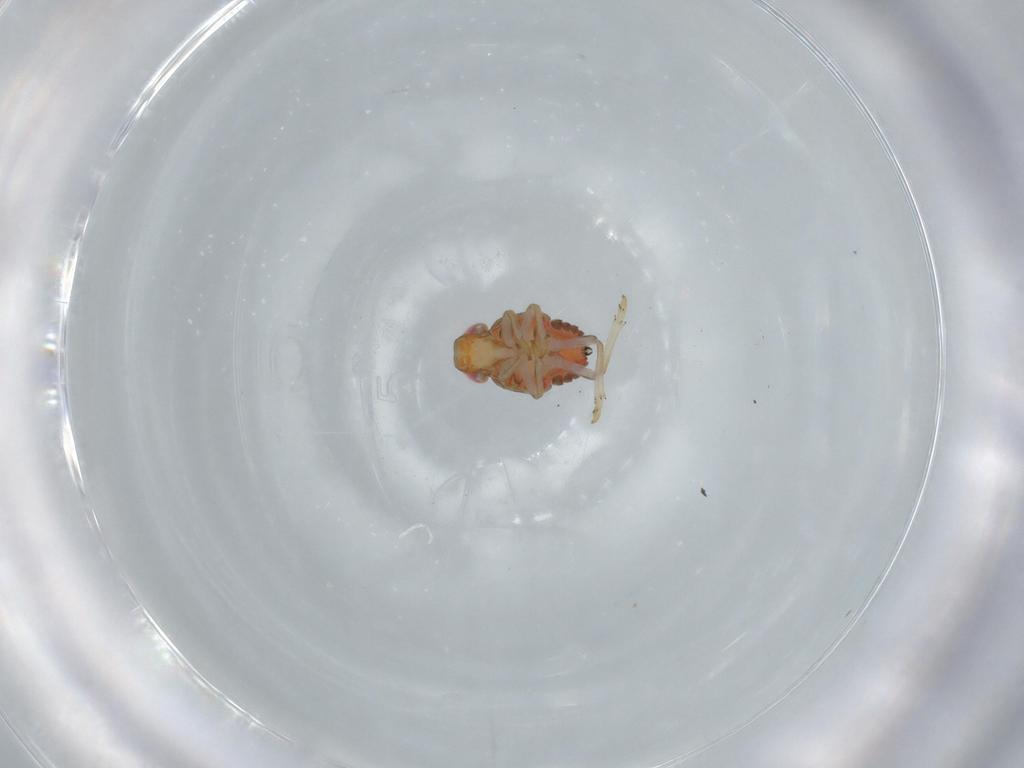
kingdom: Animalia
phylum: Arthropoda
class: Insecta
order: Hemiptera
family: Issidae
